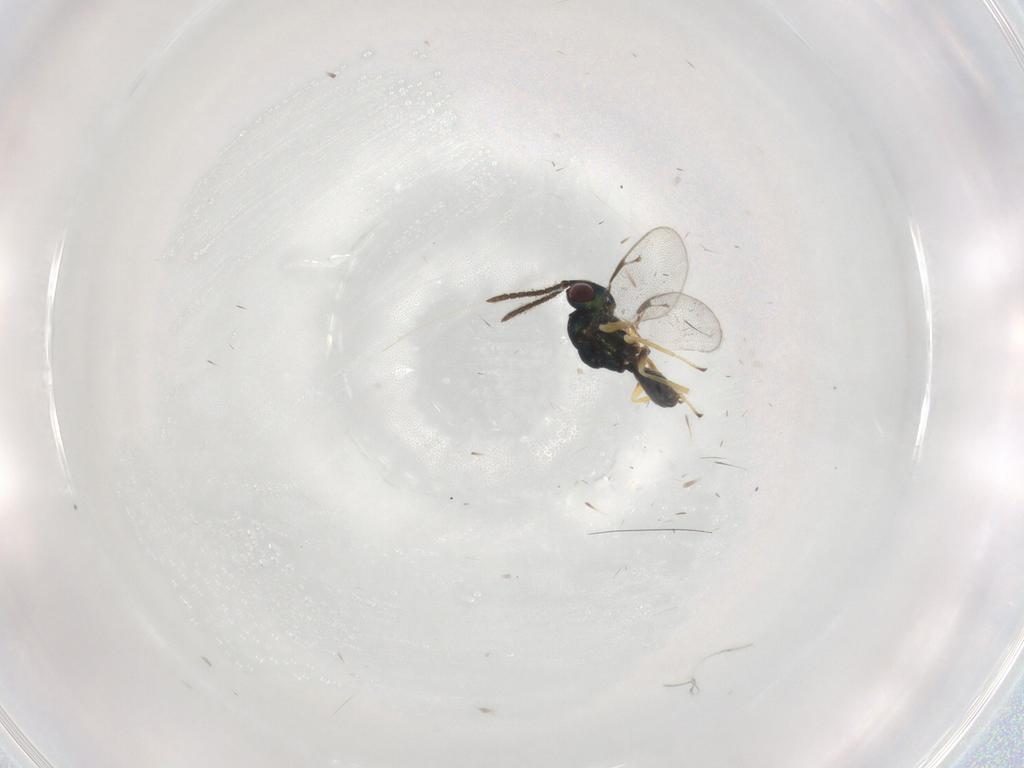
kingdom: Animalia
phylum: Arthropoda
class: Insecta
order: Hymenoptera
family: Pteromalidae
